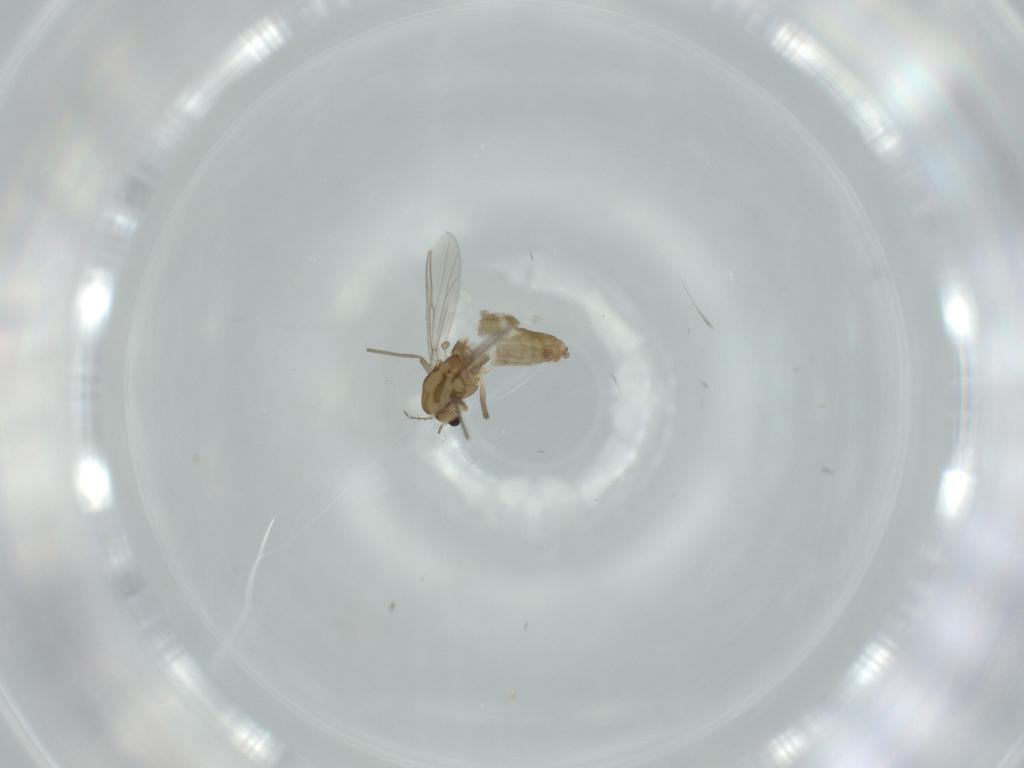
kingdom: Animalia
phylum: Arthropoda
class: Insecta
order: Diptera
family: Chironomidae
